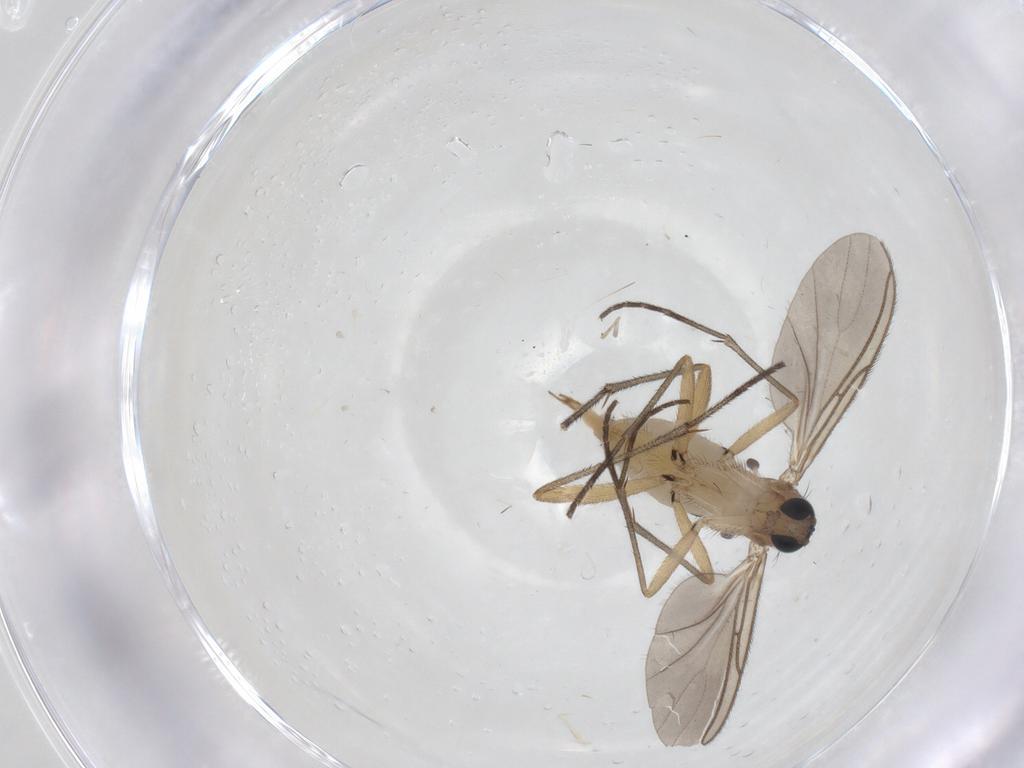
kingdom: Animalia
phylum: Arthropoda
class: Insecta
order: Diptera
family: Sciaridae
